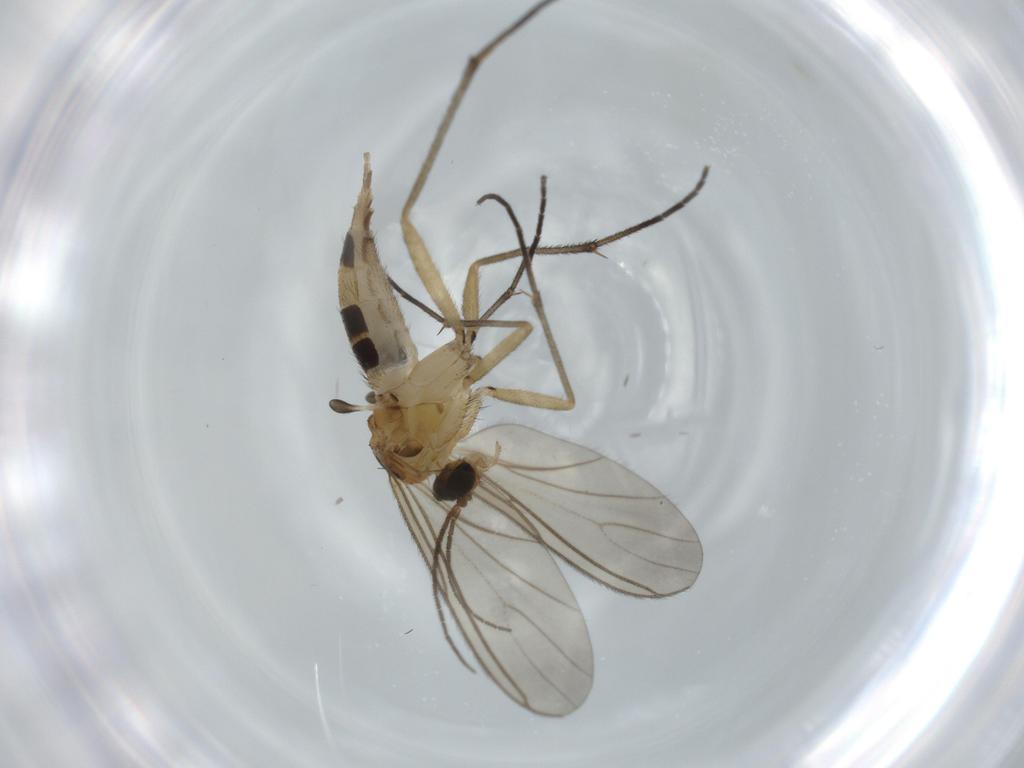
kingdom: Animalia
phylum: Arthropoda
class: Insecta
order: Diptera
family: Sciaridae
